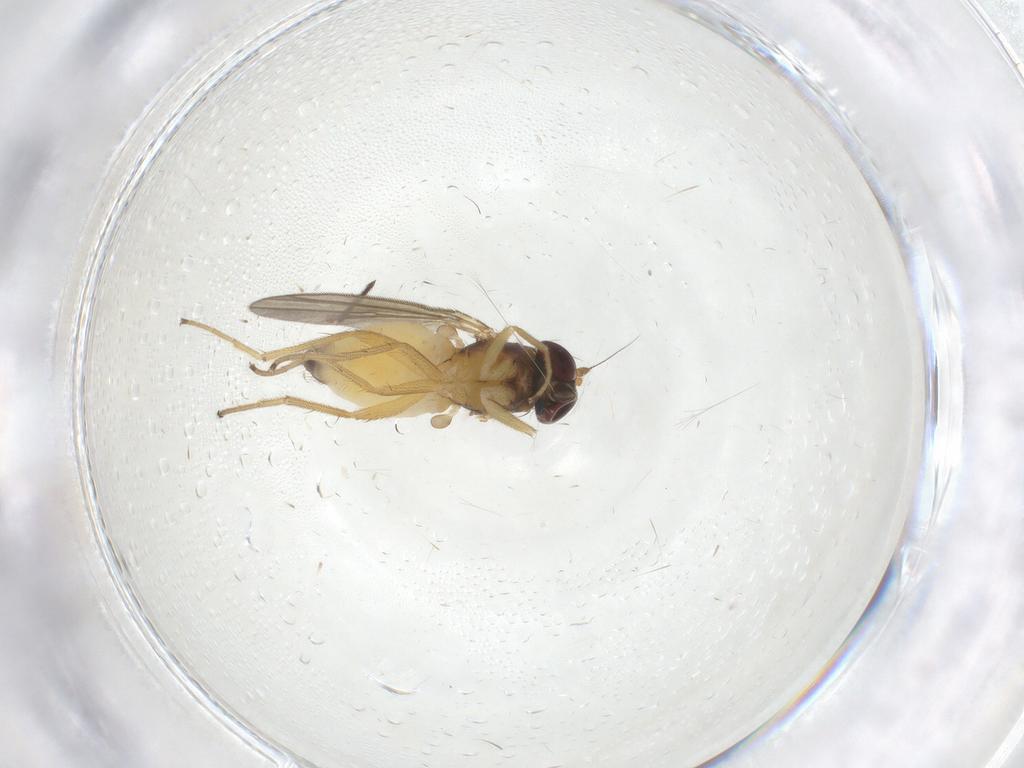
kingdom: Animalia
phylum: Arthropoda
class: Insecta
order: Diptera
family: Dolichopodidae
